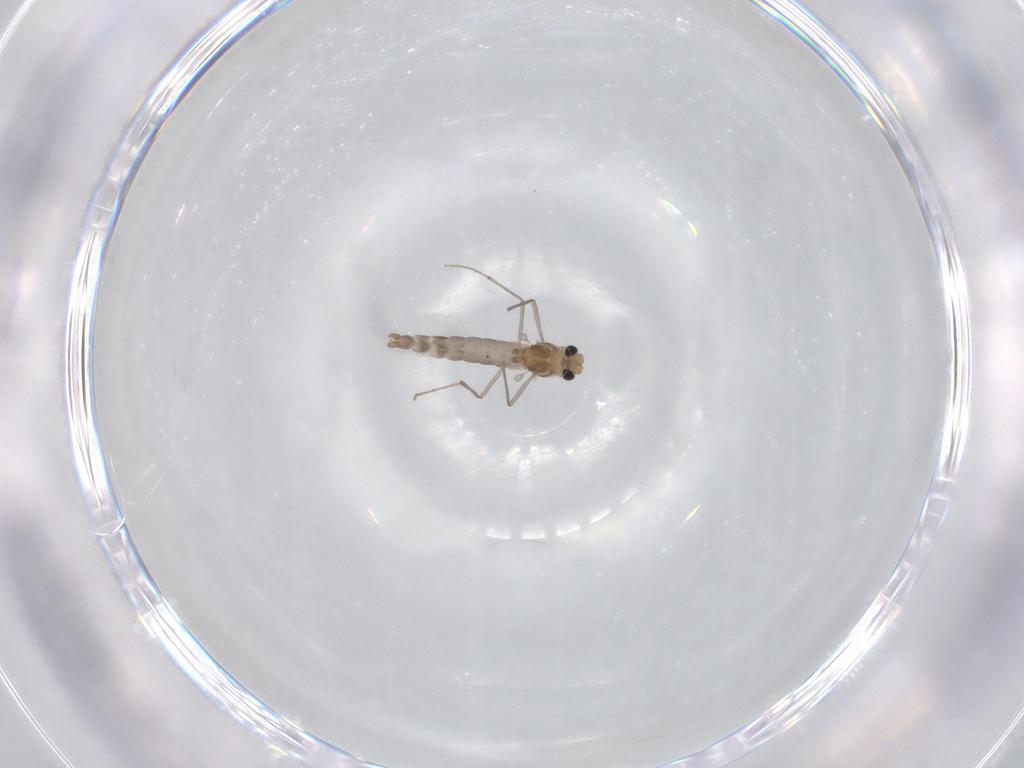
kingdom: Animalia
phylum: Arthropoda
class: Insecta
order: Diptera
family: Chironomidae
